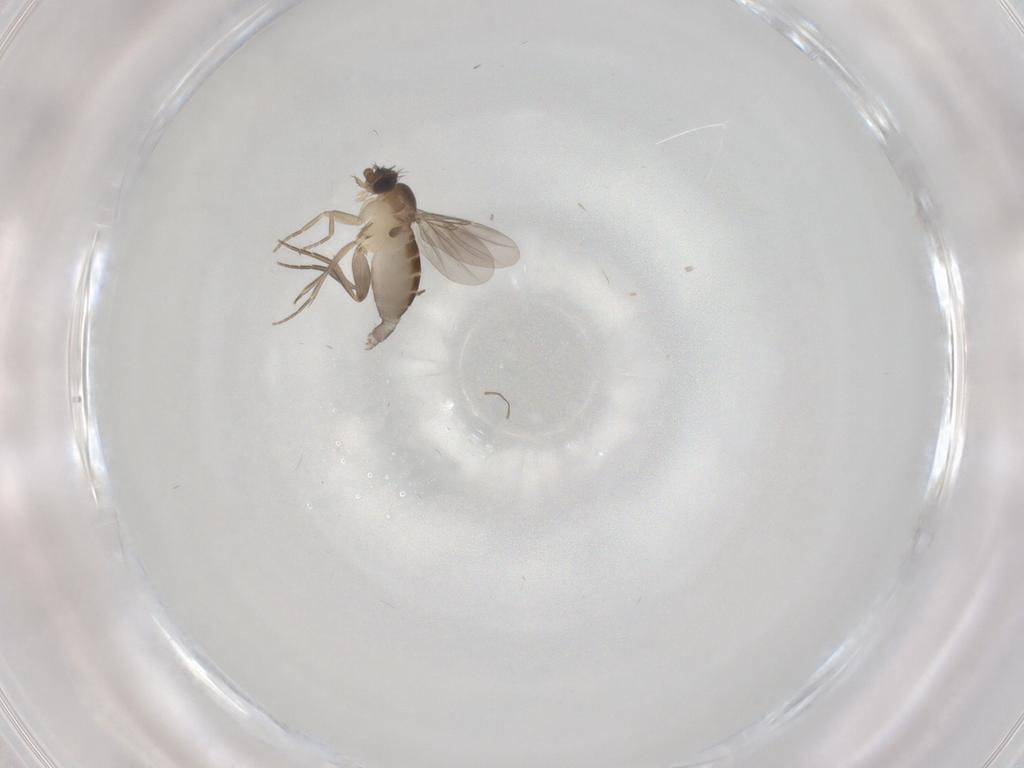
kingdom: Animalia
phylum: Arthropoda
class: Insecta
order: Diptera
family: Phoridae
